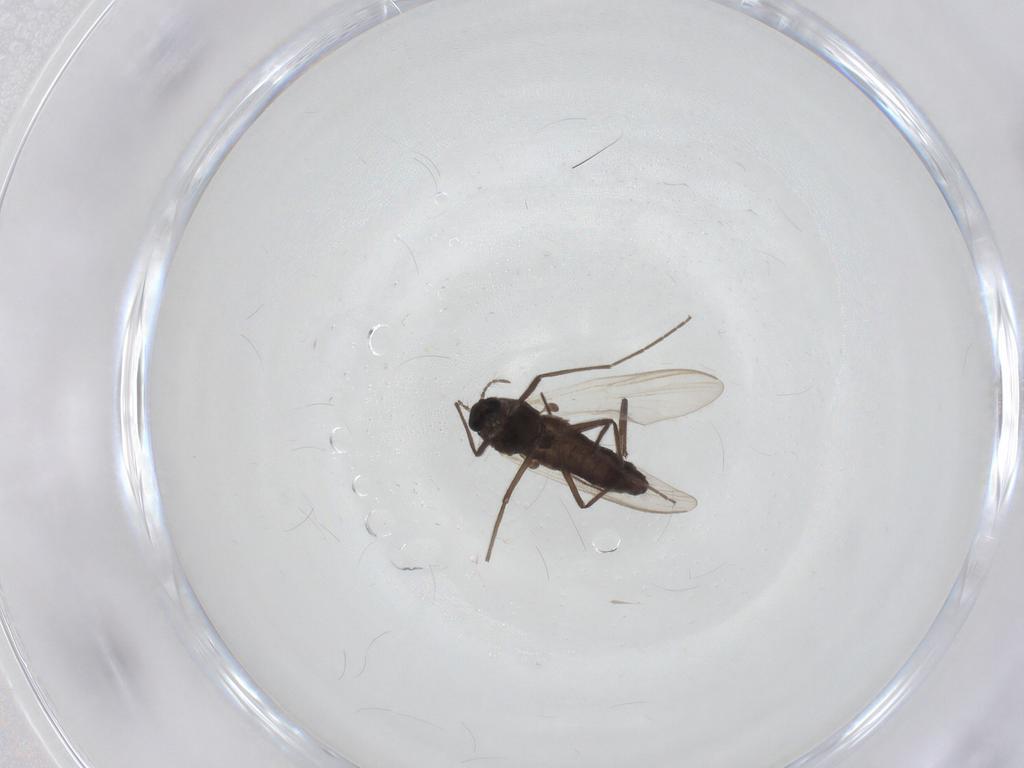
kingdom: Animalia
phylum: Arthropoda
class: Insecta
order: Diptera
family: Chironomidae
